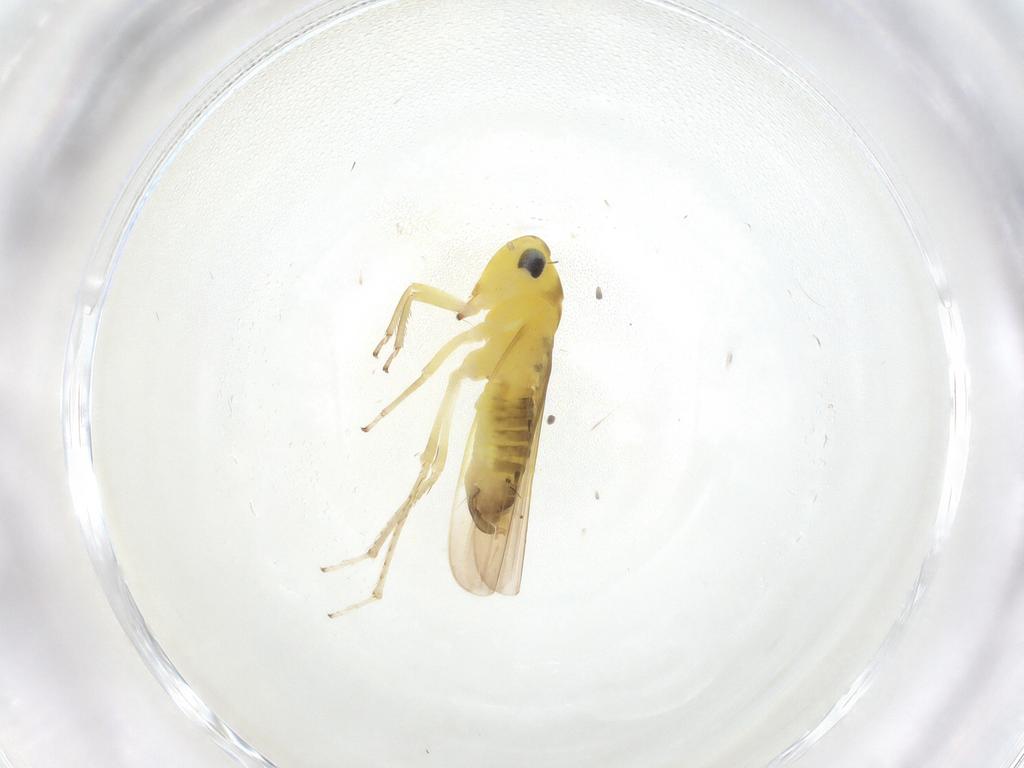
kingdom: Animalia
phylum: Arthropoda
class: Insecta
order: Hemiptera
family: Cicadellidae
